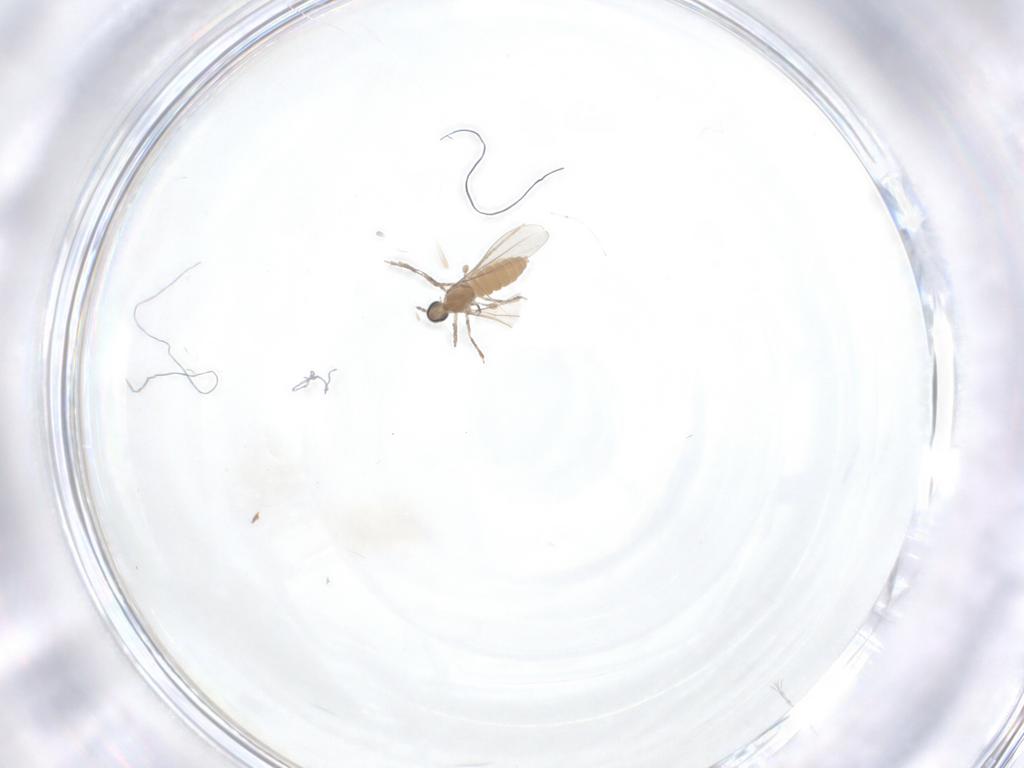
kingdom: Animalia
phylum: Arthropoda
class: Insecta
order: Diptera
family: Cecidomyiidae
